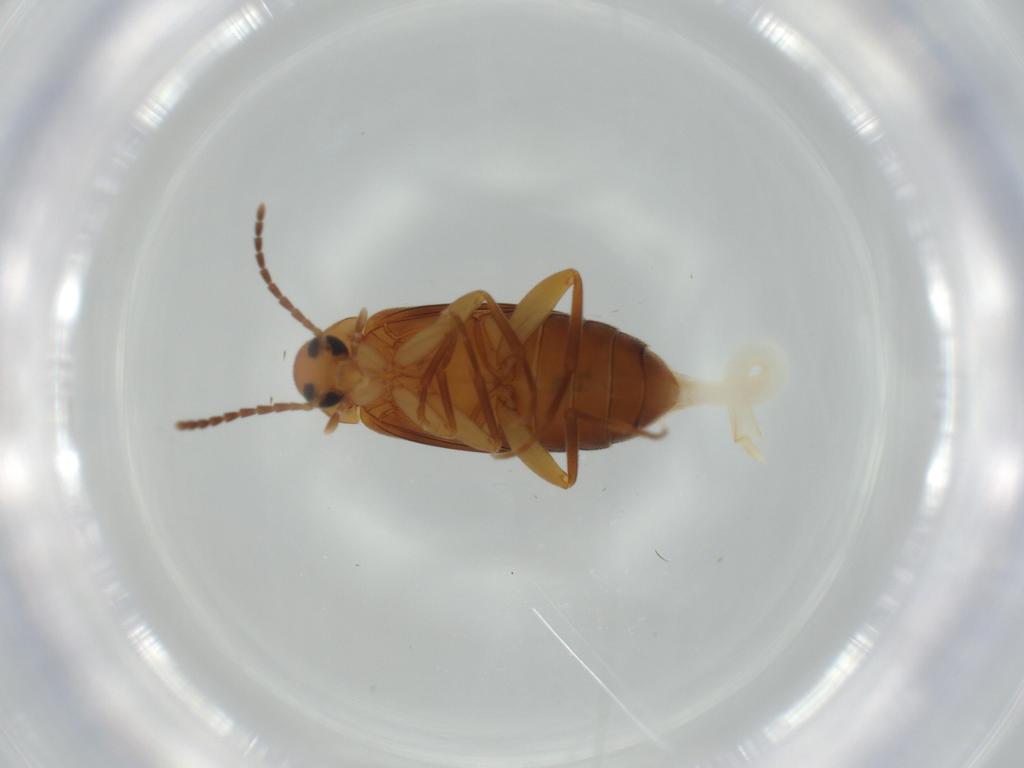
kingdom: Animalia
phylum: Arthropoda
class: Insecta
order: Coleoptera
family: Scraptiidae
